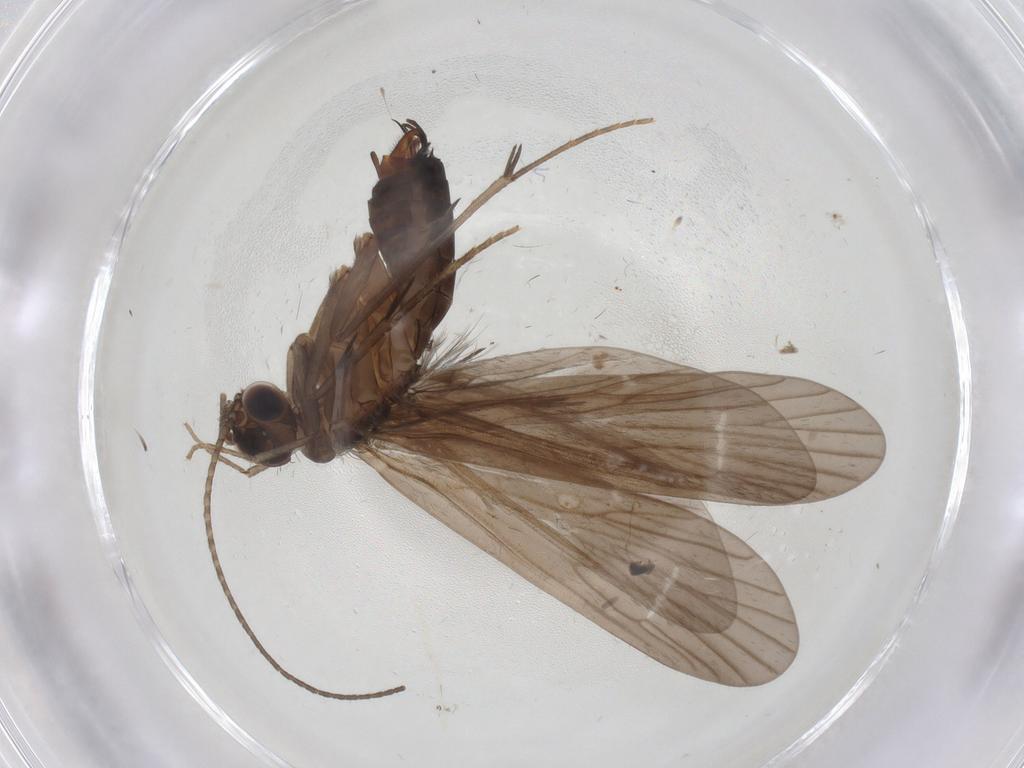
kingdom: Animalia
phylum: Arthropoda
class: Insecta
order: Trichoptera
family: Philopotamidae
